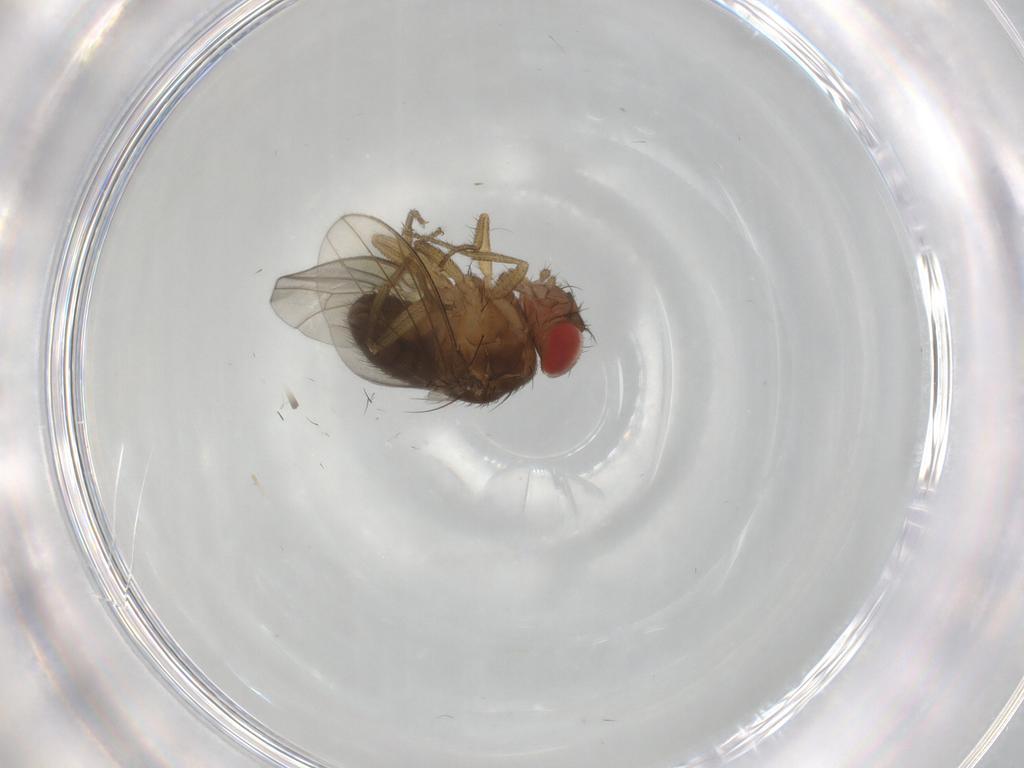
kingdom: Animalia
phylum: Arthropoda
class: Insecta
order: Diptera
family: Drosophilidae
